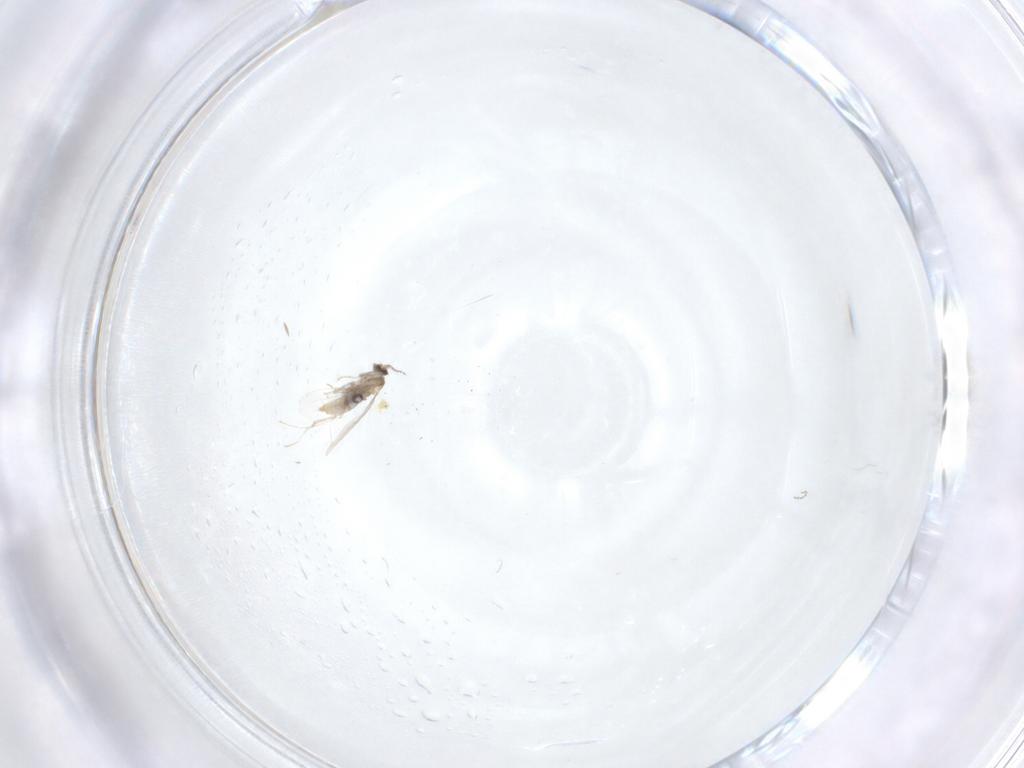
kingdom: Animalia
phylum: Arthropoda
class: Insecta
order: Diptera
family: Cecidomyiidae
